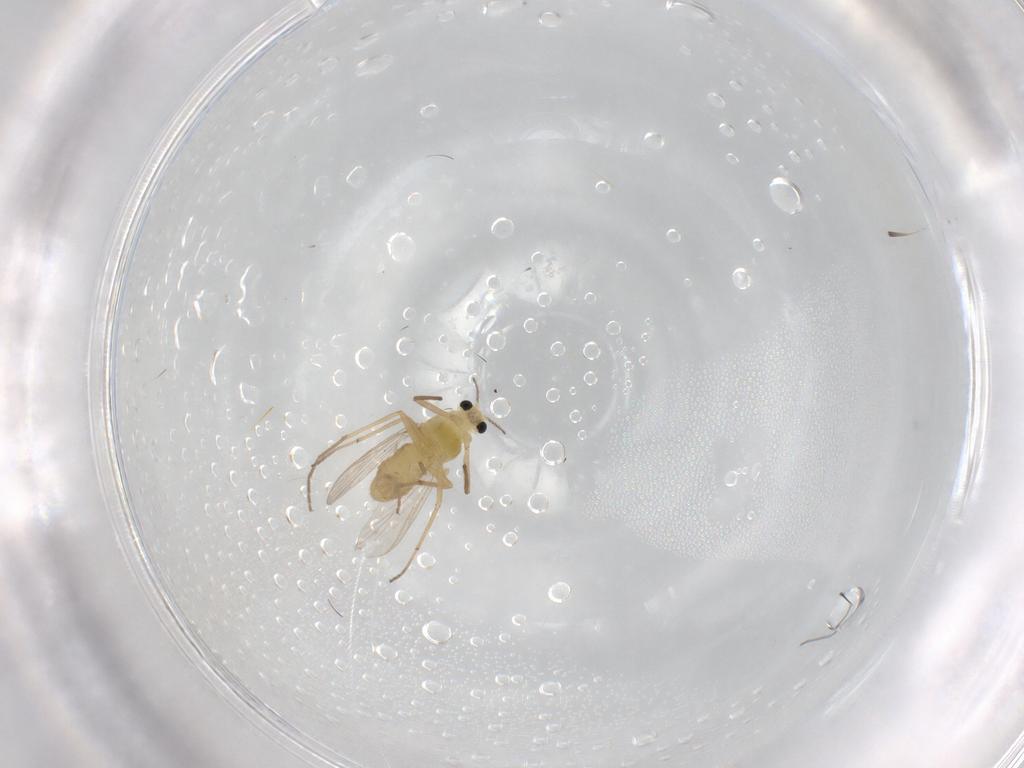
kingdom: Animalia
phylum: Arthropoda
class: Insecta
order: Diptera
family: Chironomidae
